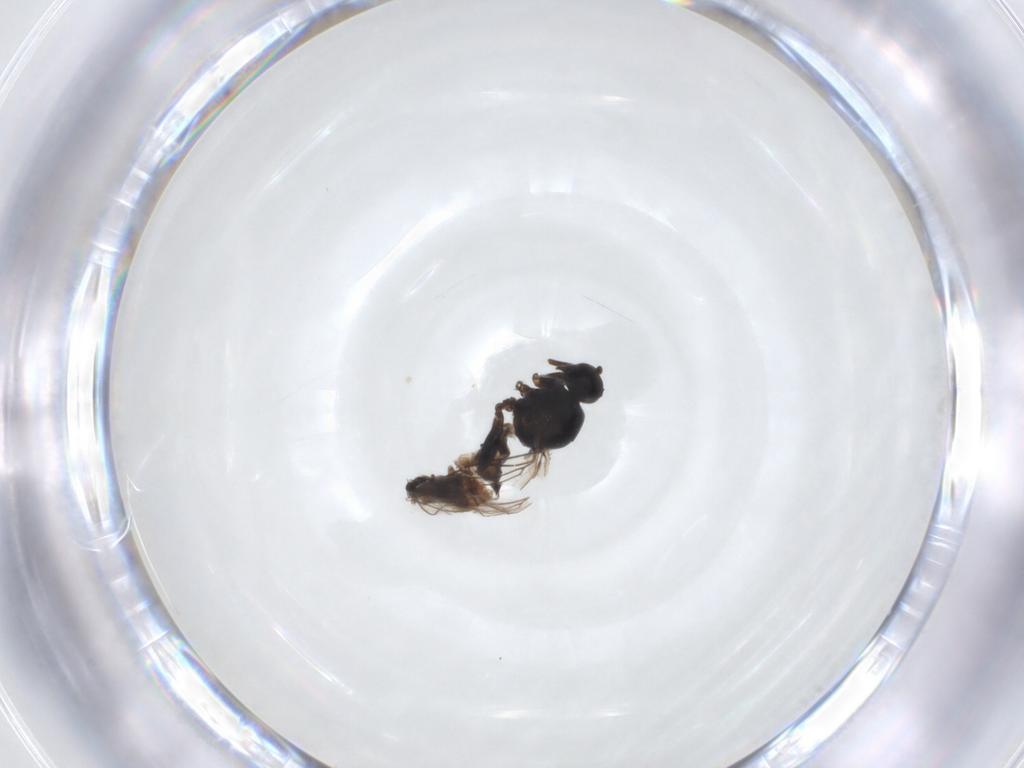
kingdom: Animalia
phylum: Arthropoda
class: Insecta
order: Diptera
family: Hybotidae
